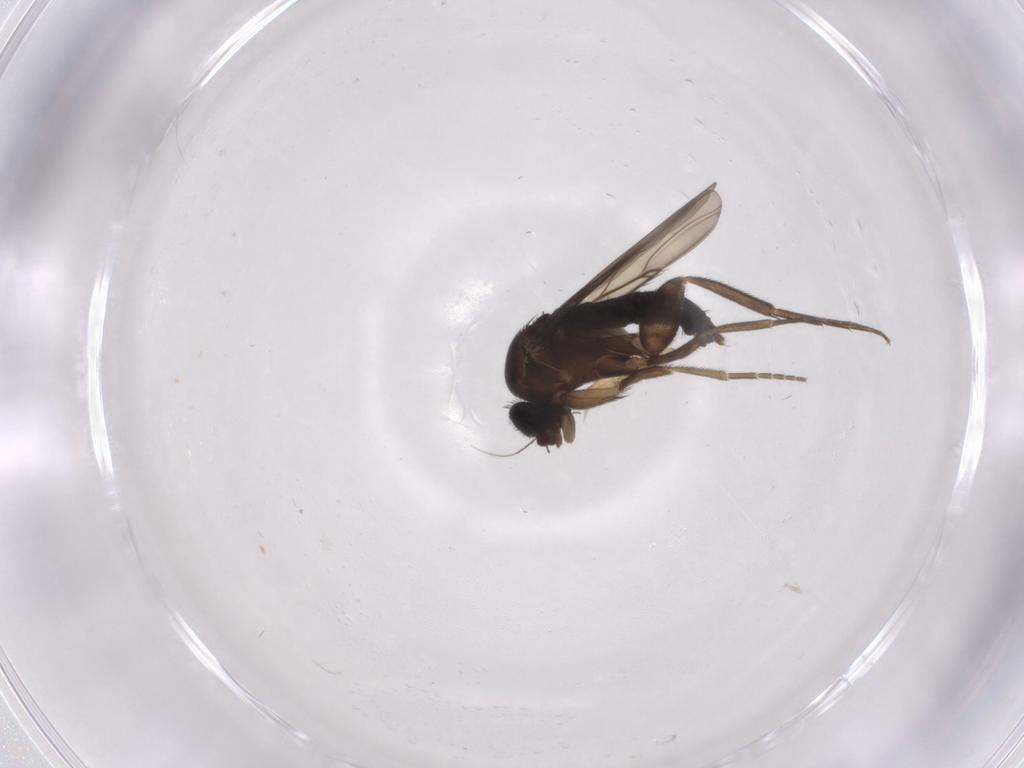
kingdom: Animalia
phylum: Arthropoda
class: Insecta
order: Diptera
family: Phoridae
